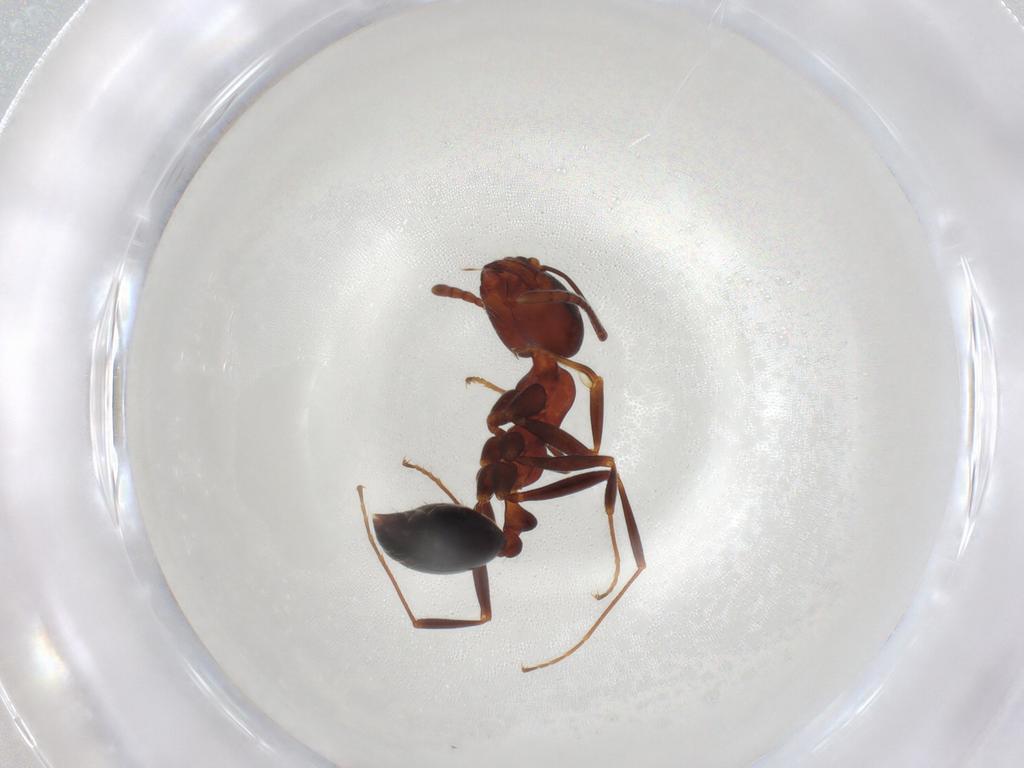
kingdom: Animalia
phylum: Arthropoda
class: Insecta
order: Hymenoptera
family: Formicidae
